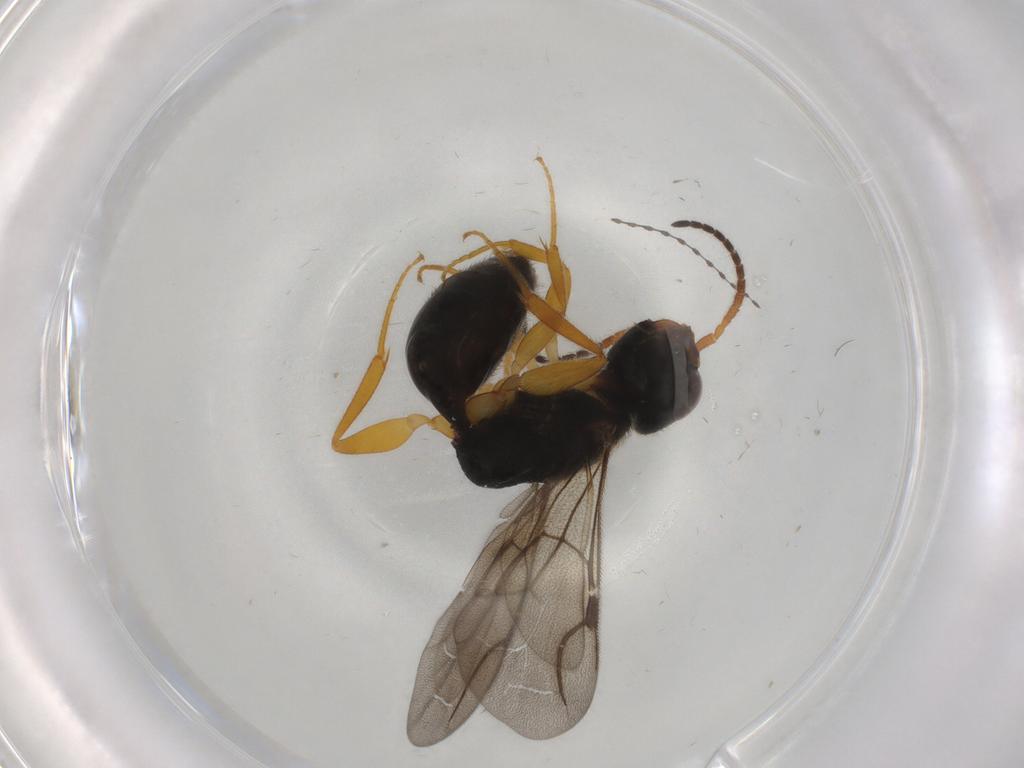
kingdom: Animalia
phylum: Arthropoda
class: Insecta
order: Hymenoptera
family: Bethylidae
